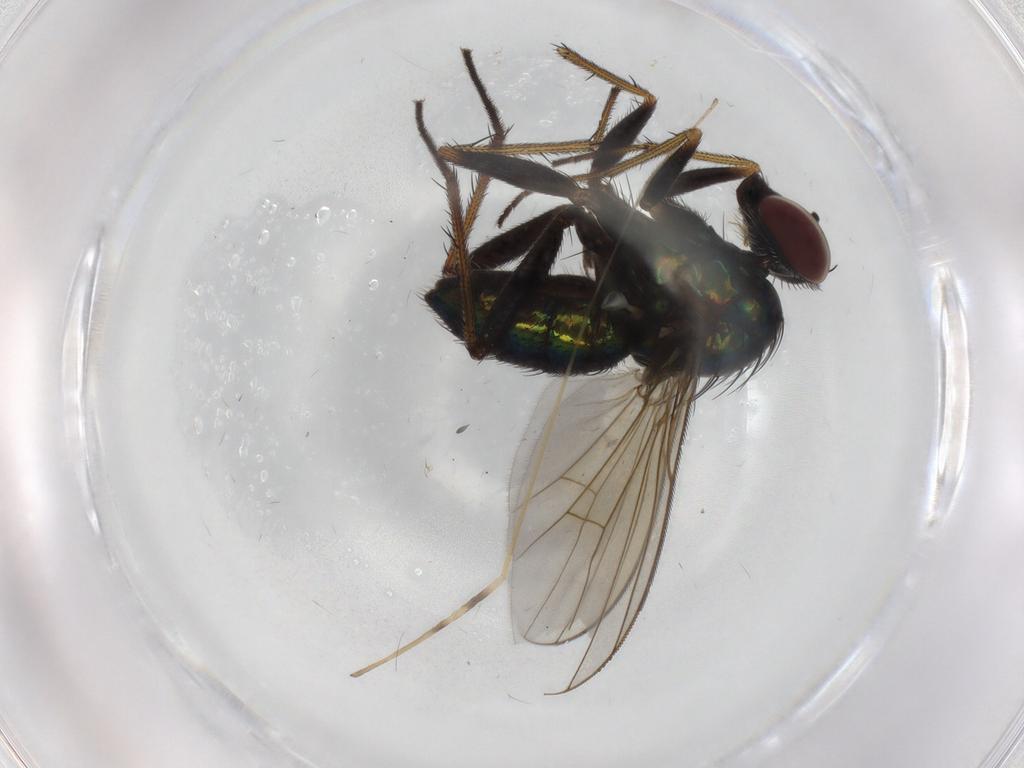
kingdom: Animalia
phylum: Arthropoda
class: Insecta
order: Diptera
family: Dolichopodidae
